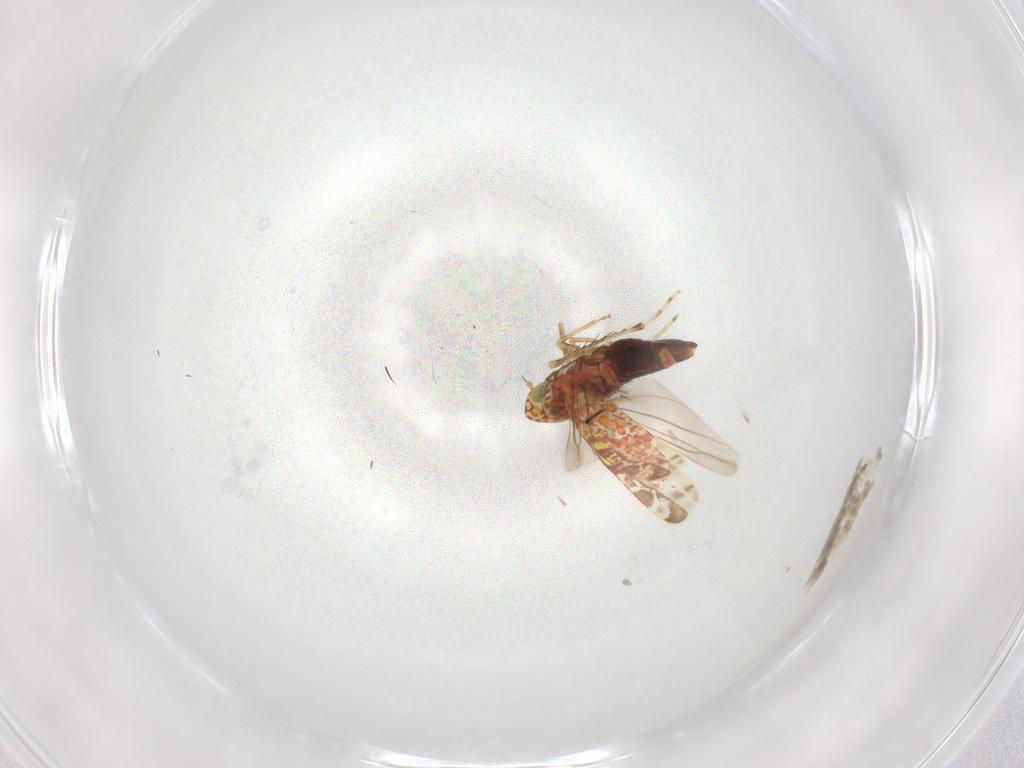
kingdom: Animalia
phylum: Arthropoda
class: Insecta
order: Hemiptera
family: Cicadellidae
